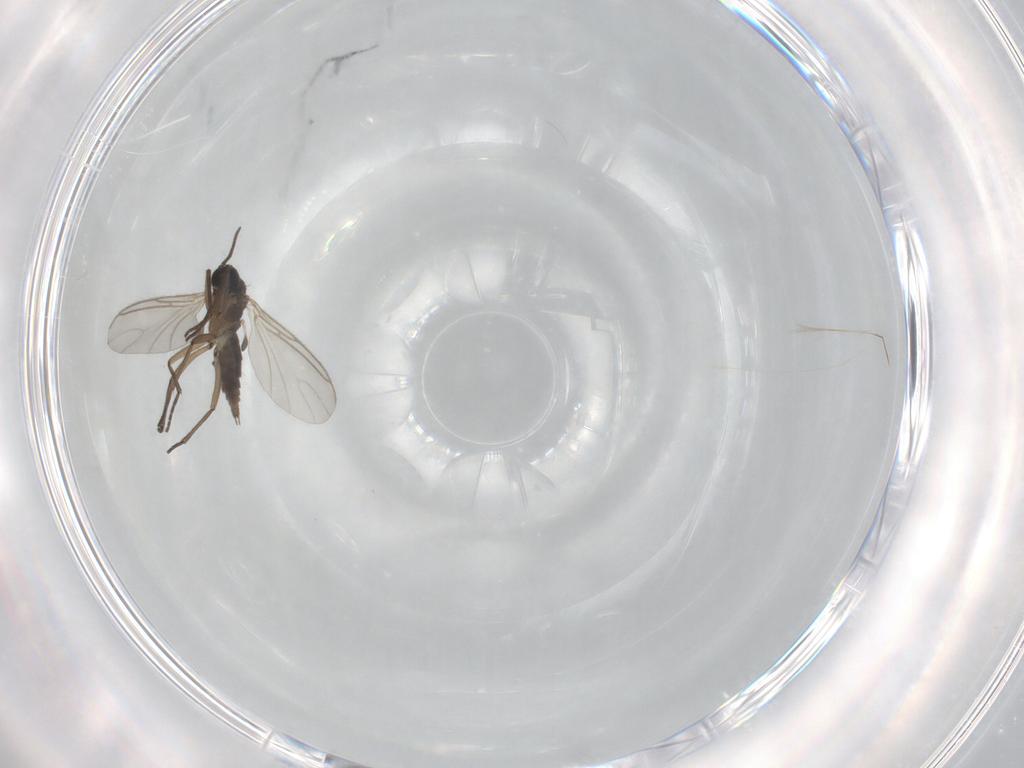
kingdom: Animalia
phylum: Arthropoda
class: Insecta
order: Diptera
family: Sciaridae
